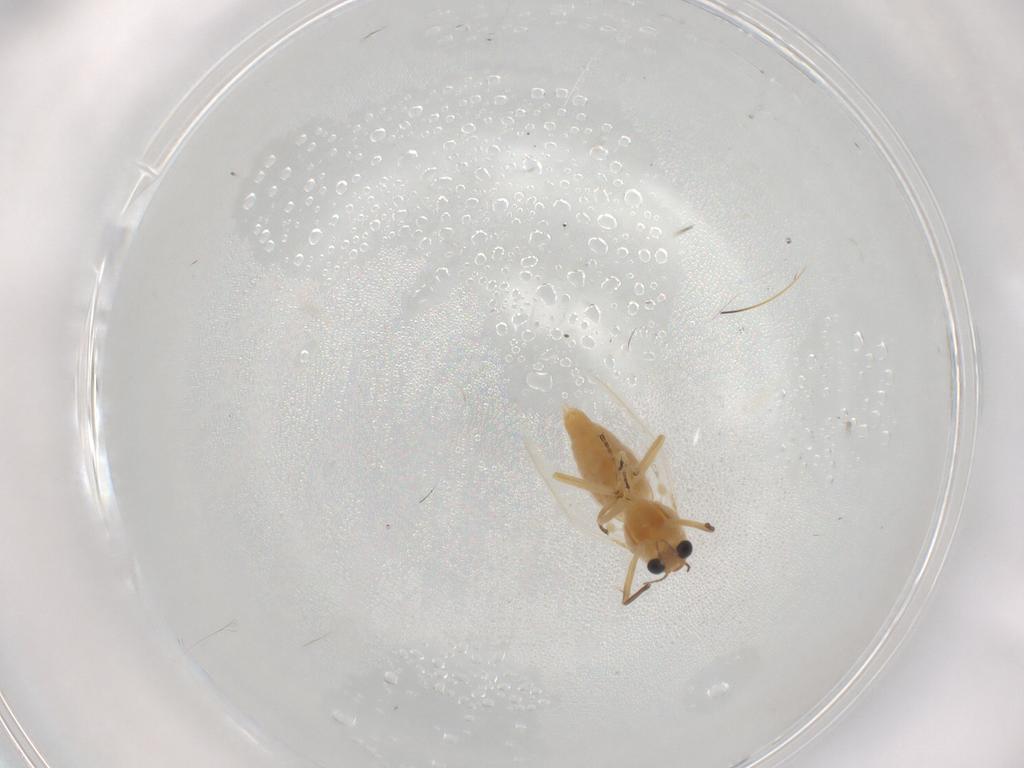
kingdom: Animalia
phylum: Arthropoda
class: Insecta
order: Diptera
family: Chironomidae
